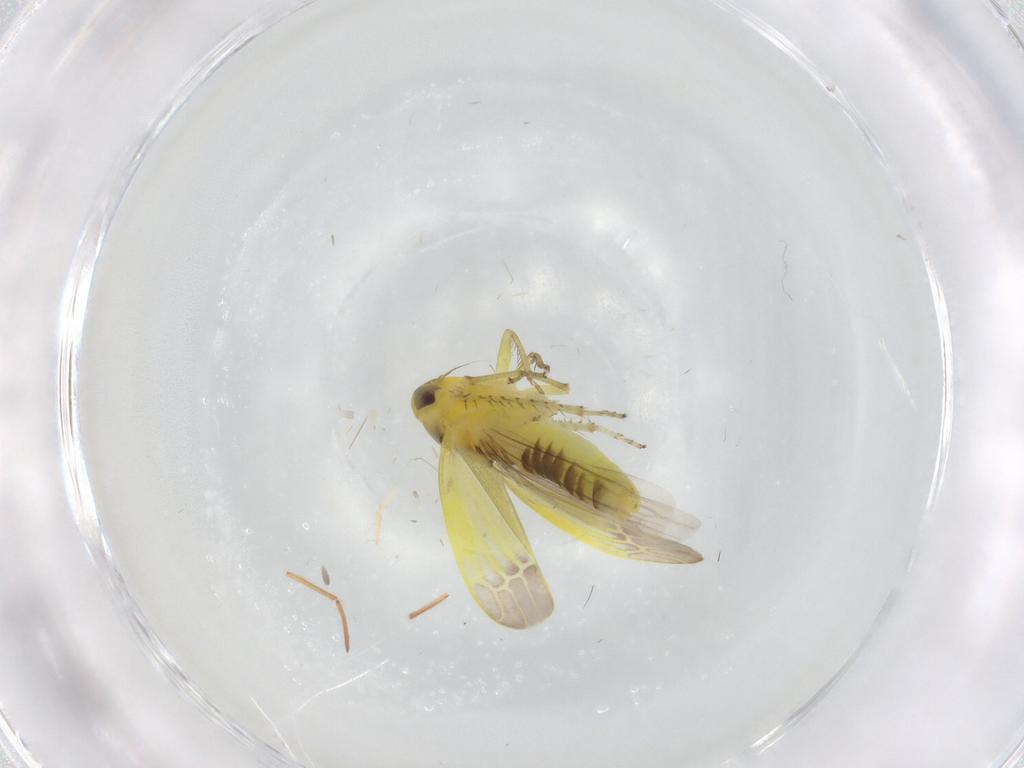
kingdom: Animalia
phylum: Arthropoda
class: Insecta
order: Hemiptera
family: Cicadellidae
